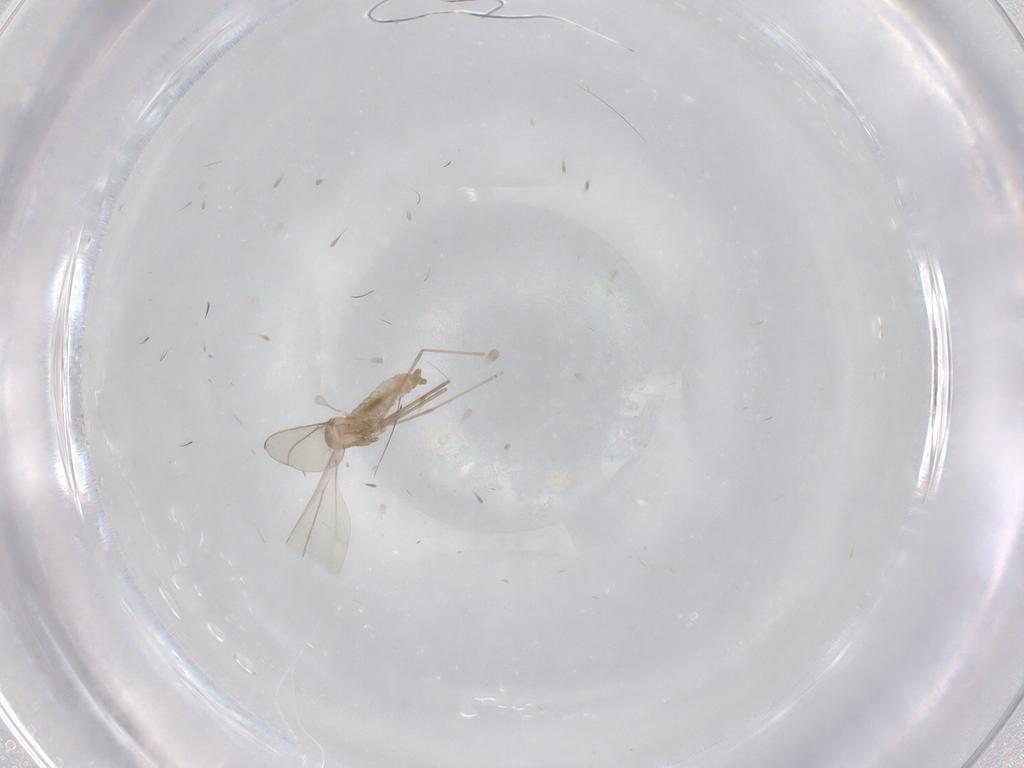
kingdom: Animalia
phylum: Arthropoda
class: Insecta
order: Diptera
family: Phoridae
